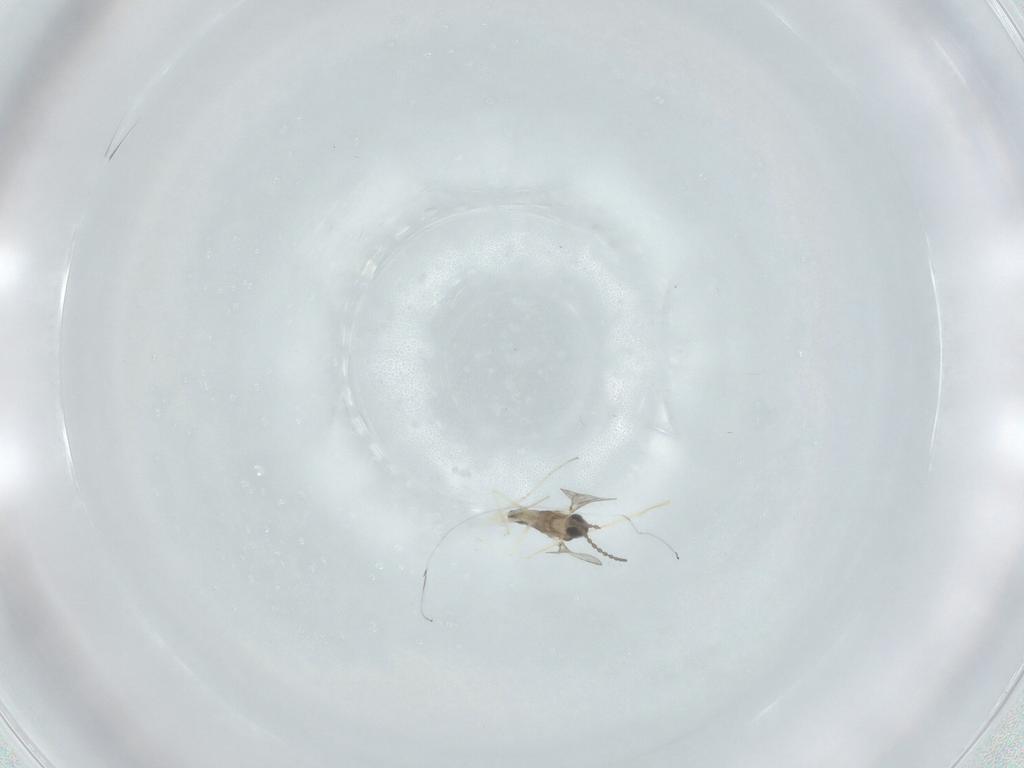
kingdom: Animalia
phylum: Arthropoda
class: Insecta
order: Diptera
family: Cecidomyiidae
